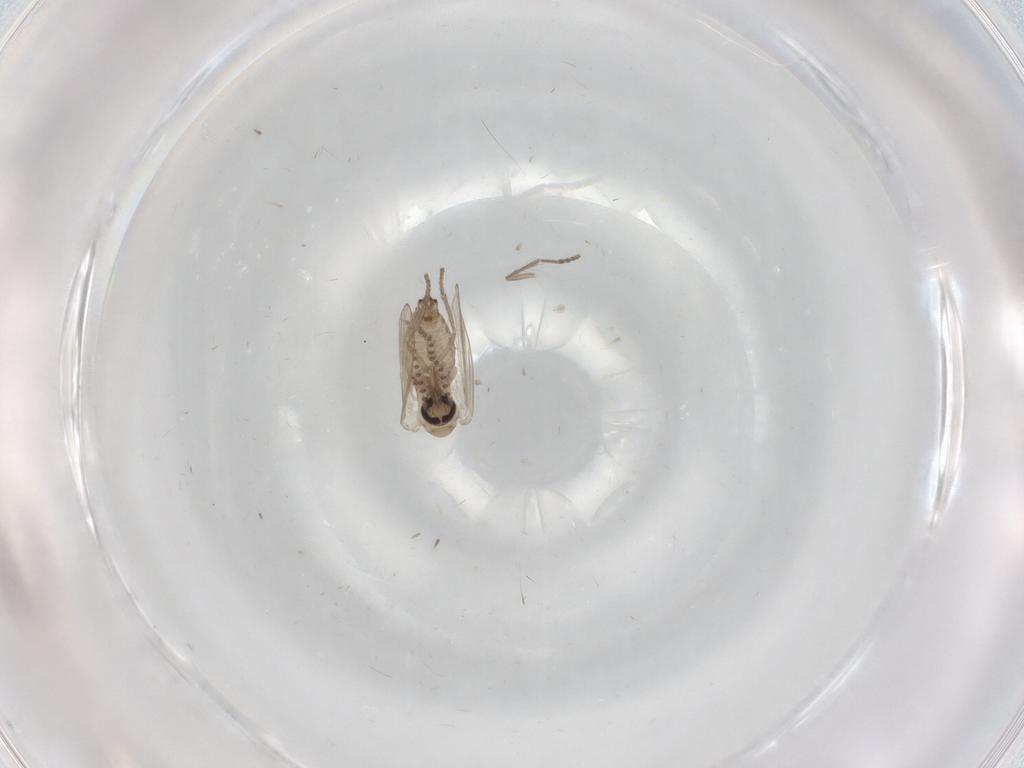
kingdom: Animalia
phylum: Arthropoda
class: Insecta
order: Diptera
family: Psychodidae
